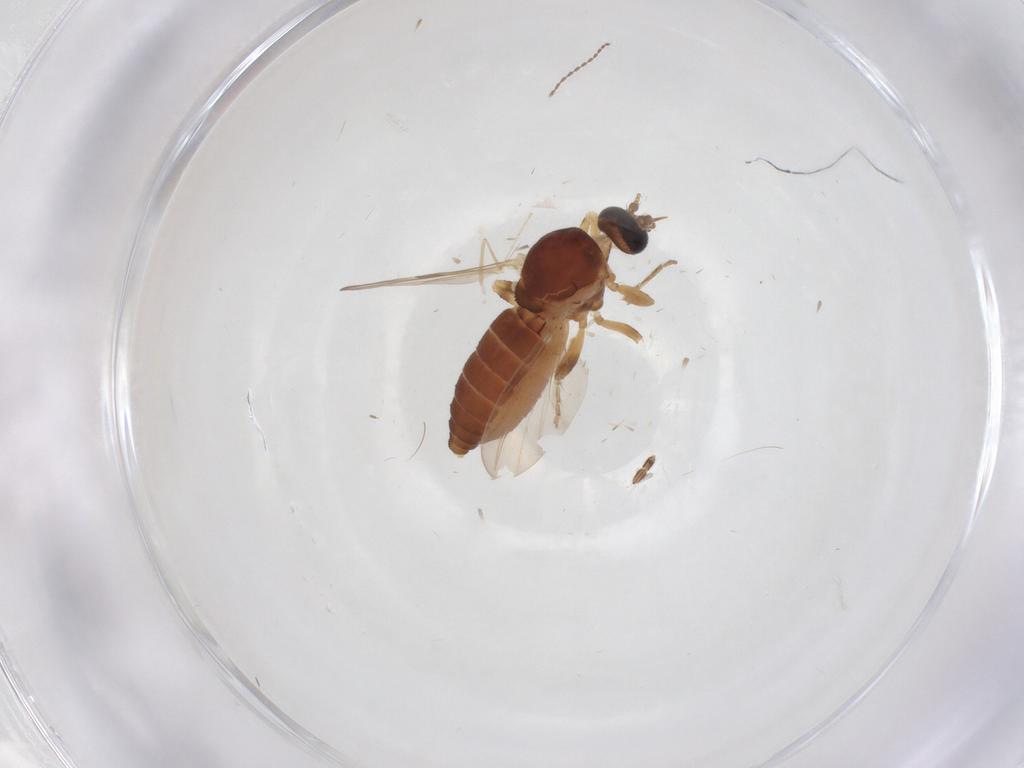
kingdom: Animalia
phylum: Arthropoda
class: Insecta
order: Diptera
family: Ceratopogonidae
